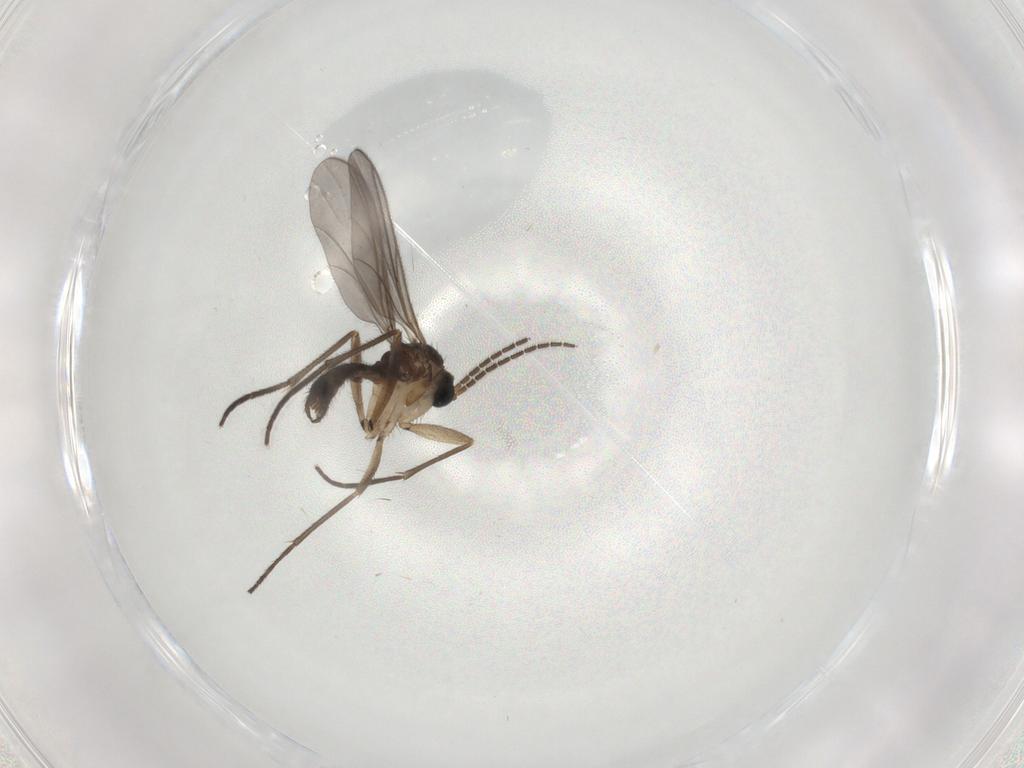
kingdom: Animalia
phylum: Arthropoda
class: Insecta
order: Diptera
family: Sciaridae
